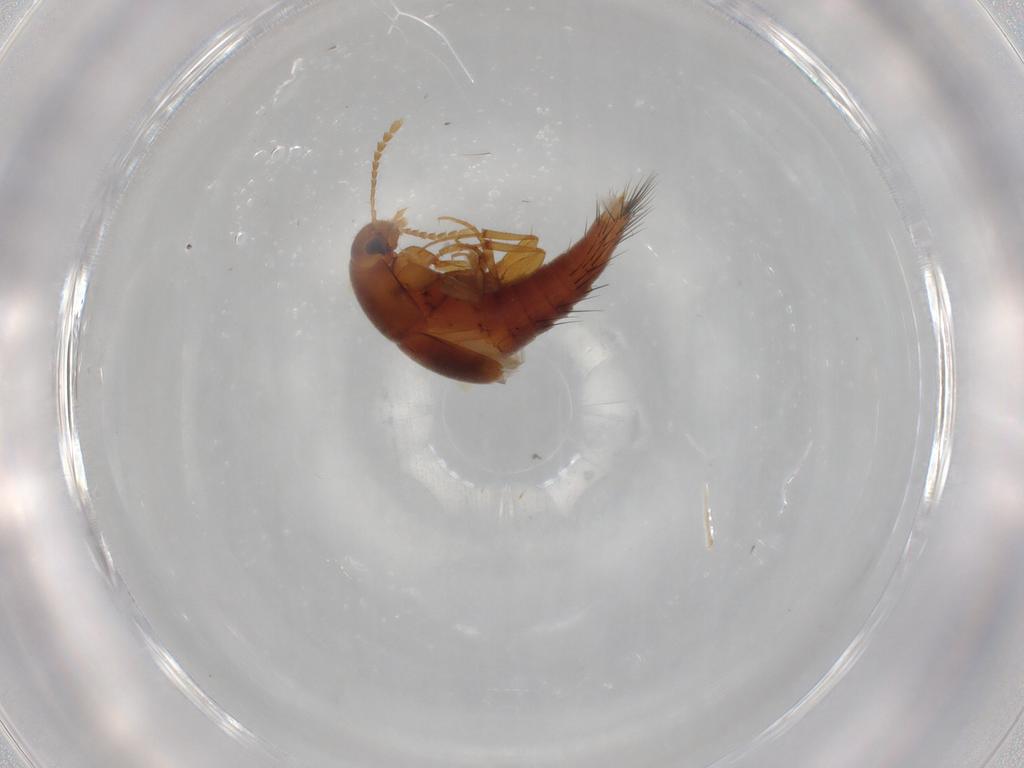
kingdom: Animalia
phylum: Arthropoda
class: Insecta
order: Coleoptera
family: Staphylinidae
